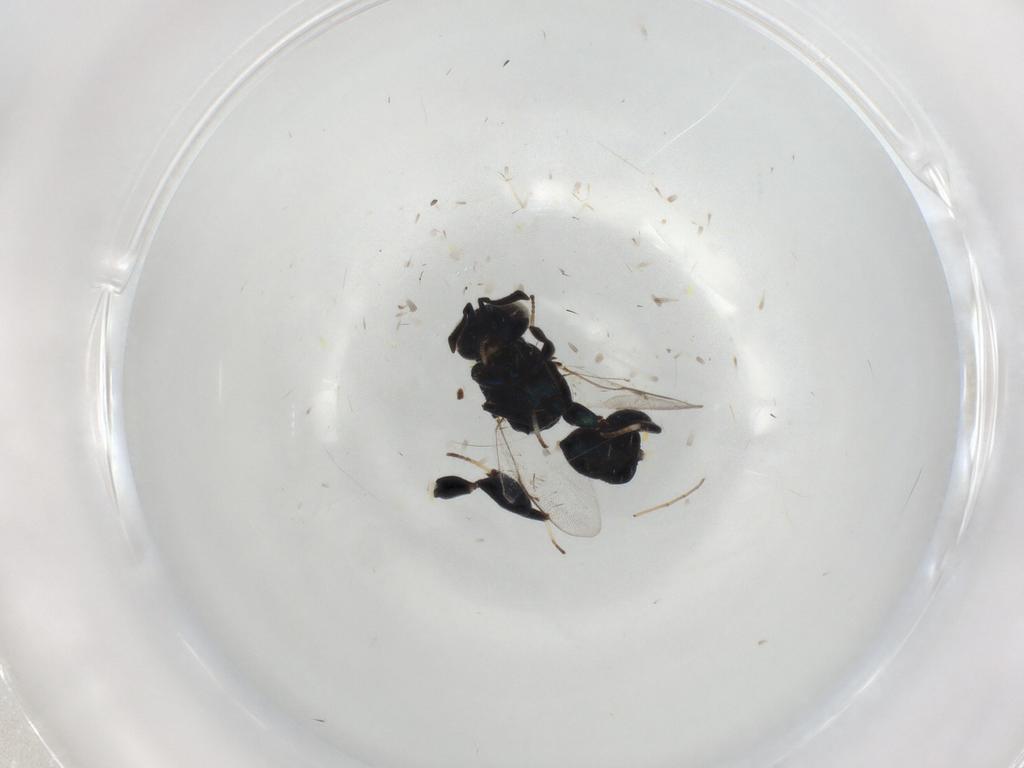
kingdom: Animalia
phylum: Arthropoda
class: Insecta
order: Hymenoptera
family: Pteromalidae
